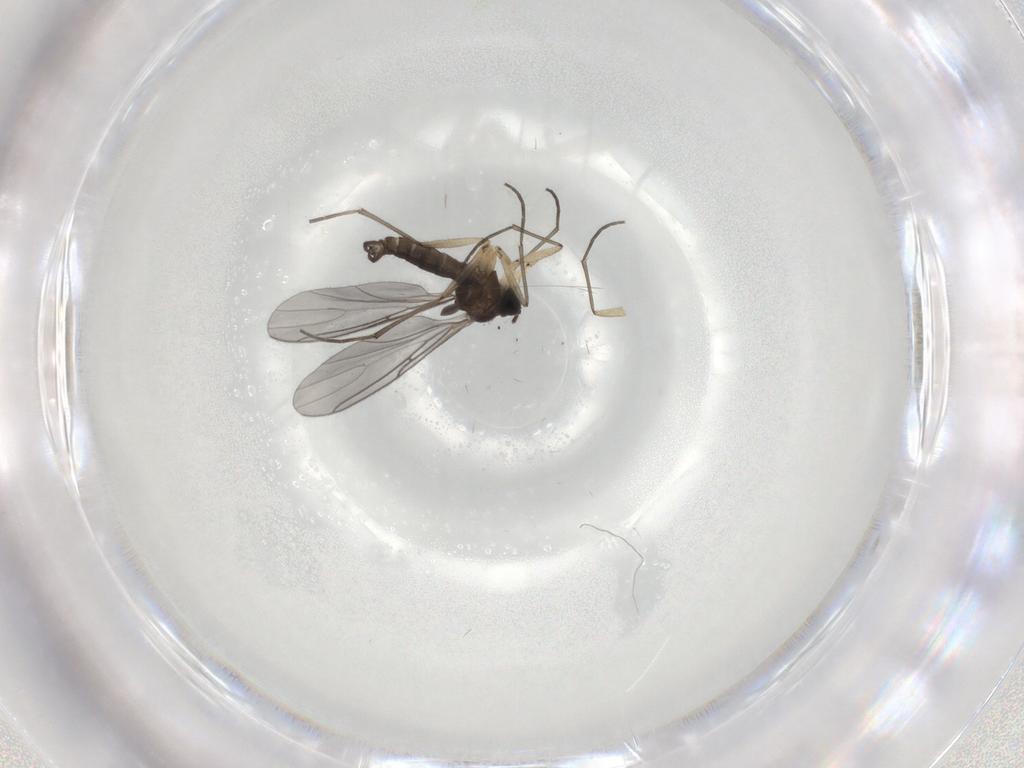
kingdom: Animalia
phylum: Arthropoda
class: Insecta
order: Diptera
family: Sciaridae
